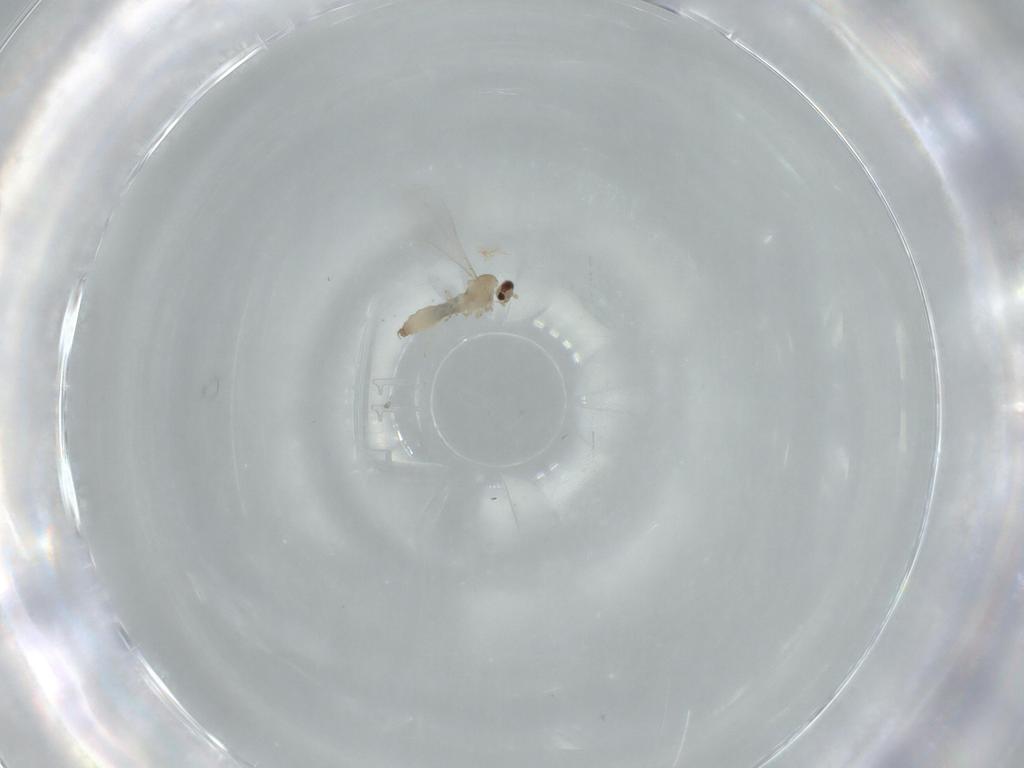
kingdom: Animalia
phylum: Arthropoda
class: Insecta
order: Diptera
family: Cecidomyiidae
